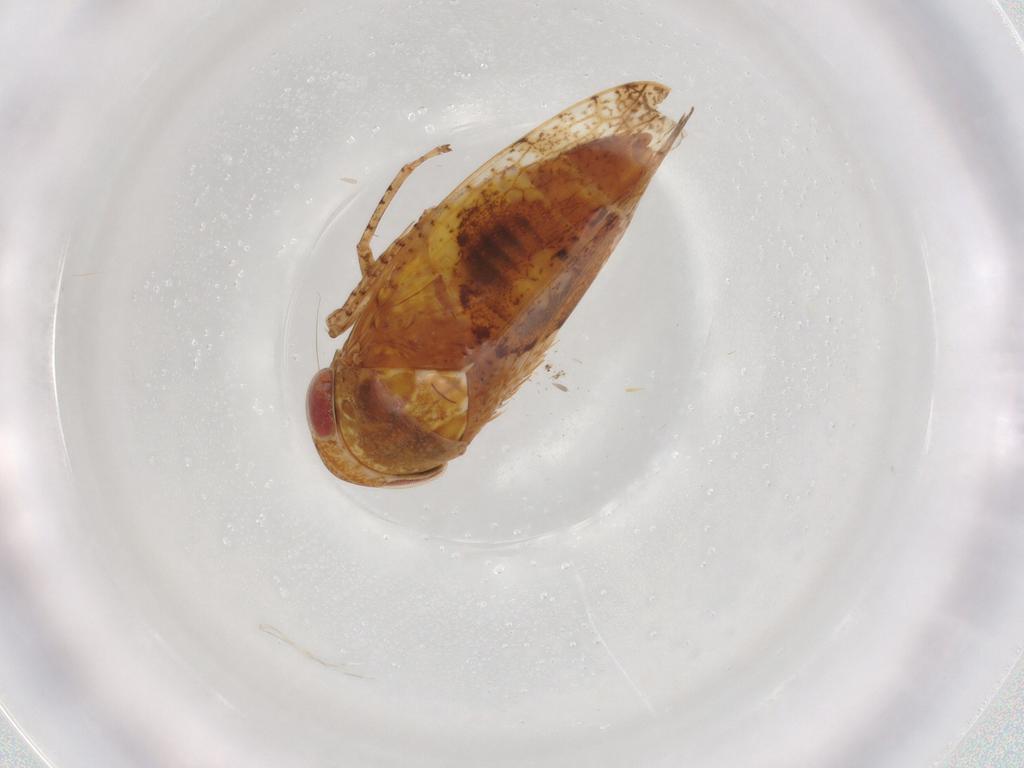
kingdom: Animalia
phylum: Arthropoda
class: Insecta
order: Hemiptera
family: Cicadellidae
